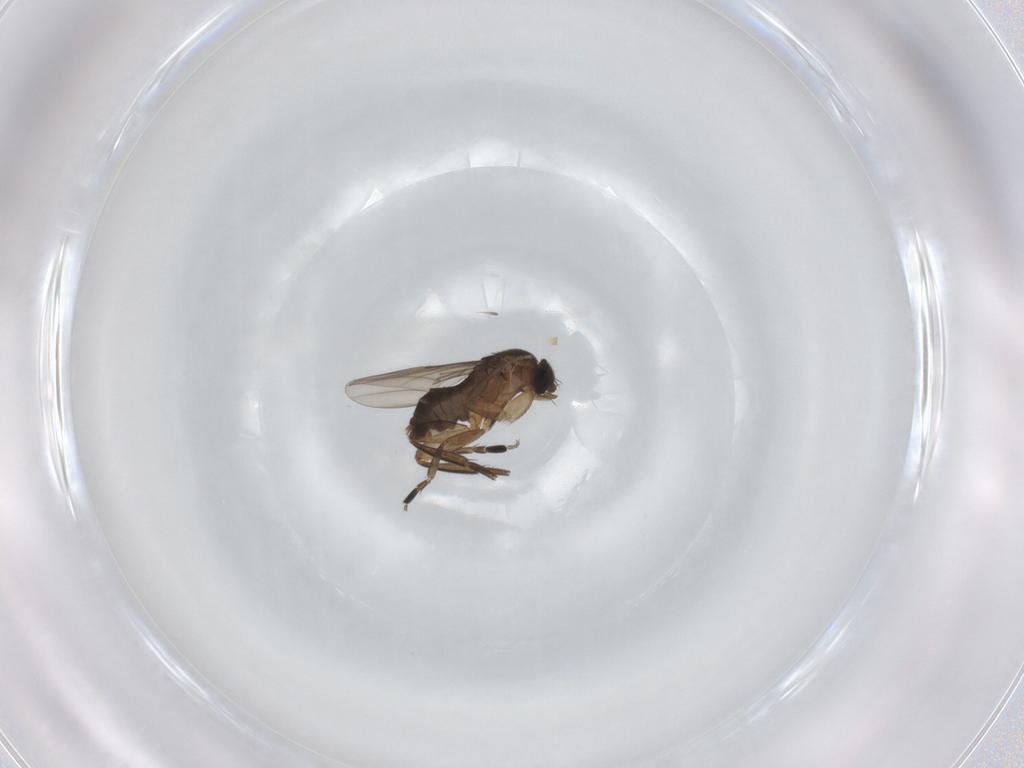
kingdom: Animalia
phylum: Arthropoda
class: Insecta
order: Diptera
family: Phoridae
